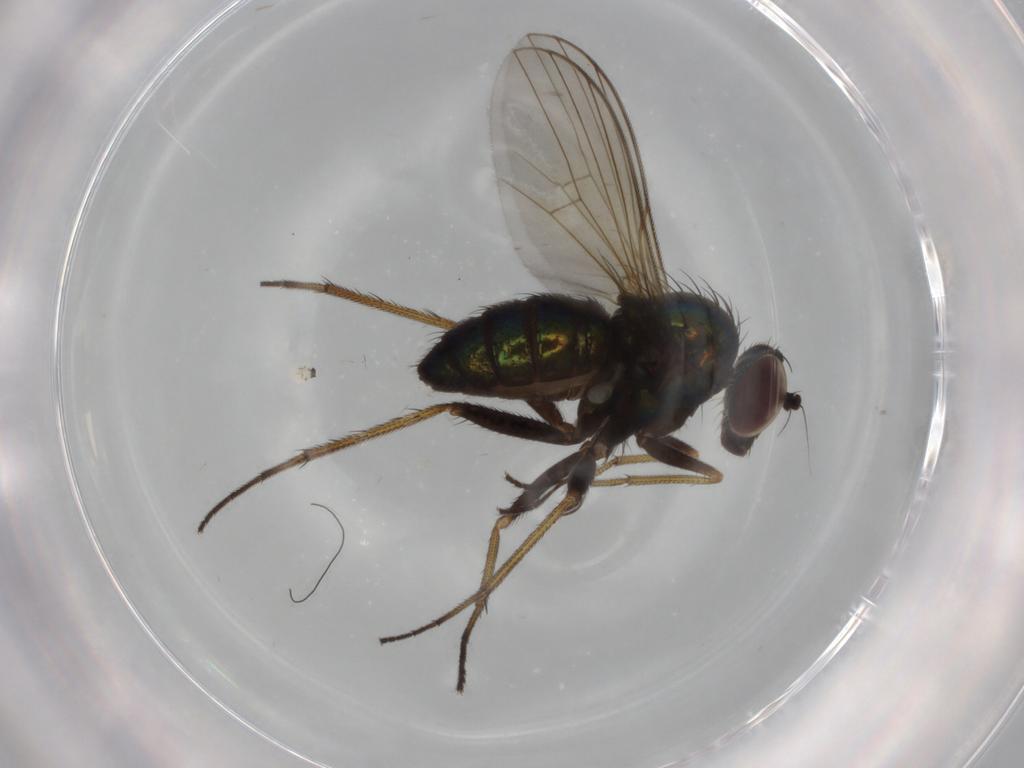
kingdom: Animalia
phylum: Arthropoda
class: Insecta
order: Diptera
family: Dolichopodidae
